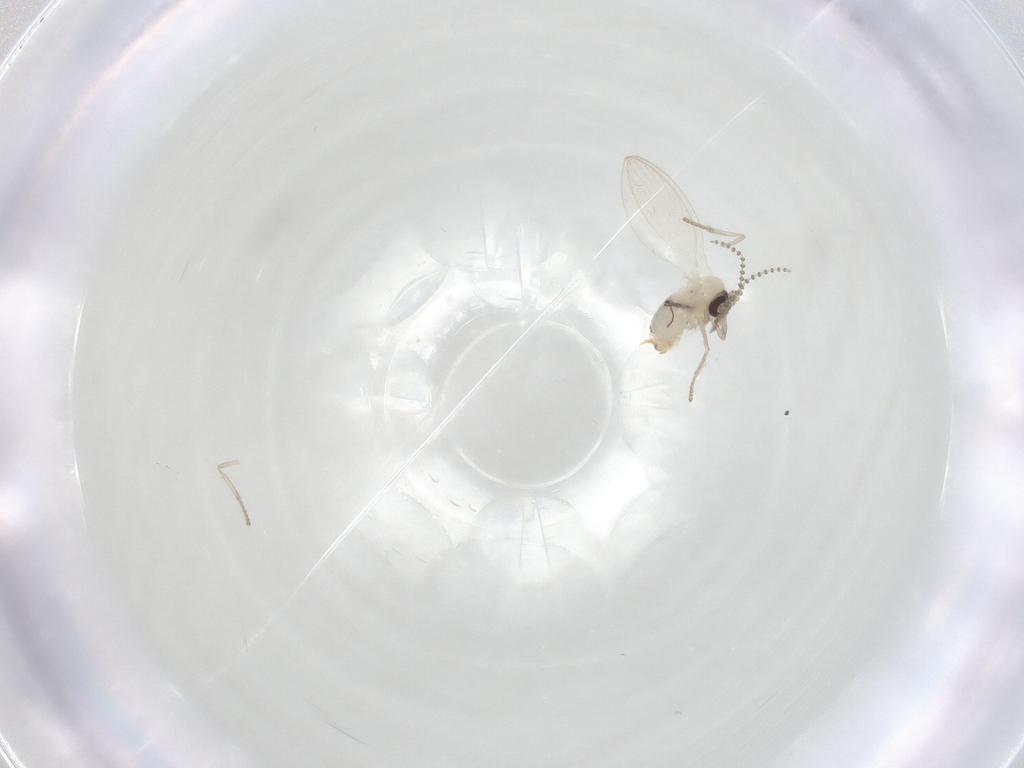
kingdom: Animalia
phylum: Arthropoda
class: Insecta
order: Diptera
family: Psychodidae
